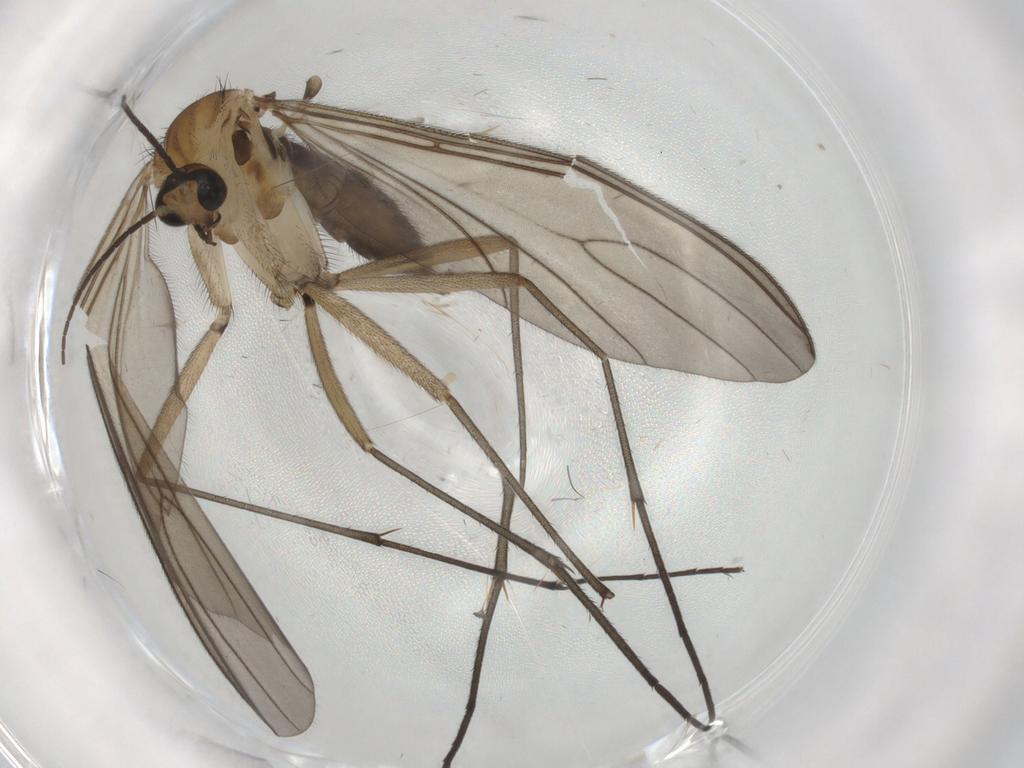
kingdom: Animalia
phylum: Arthropoda
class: Insecta
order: Diptera
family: Sciaridae
